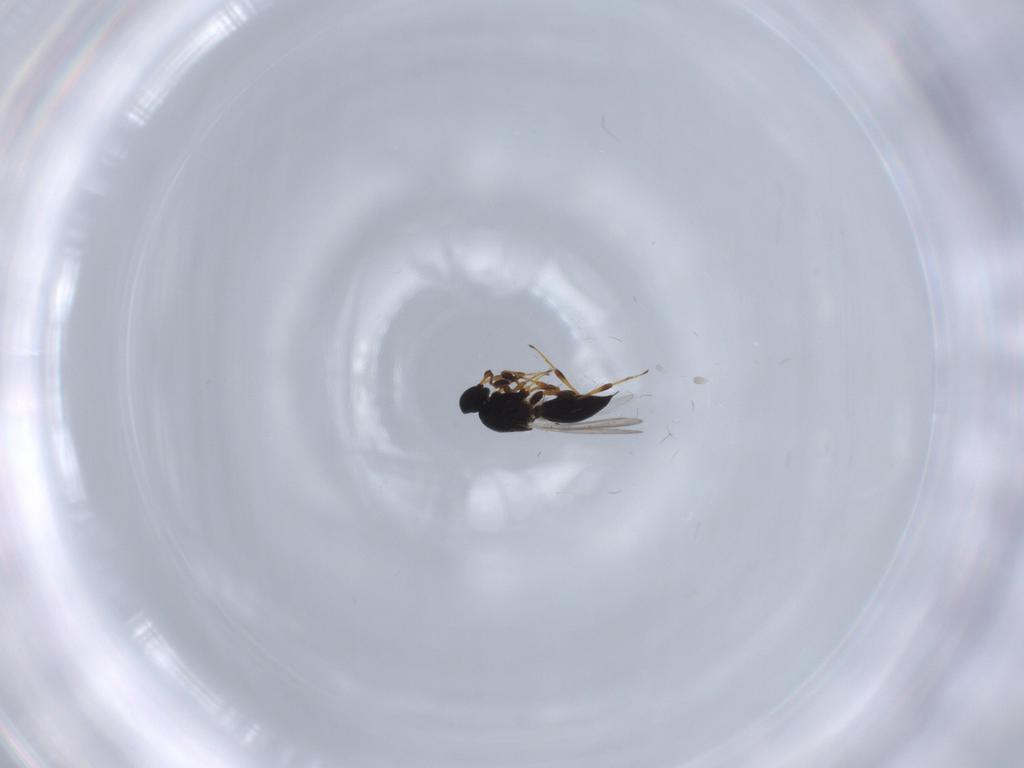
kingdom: Animalia
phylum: Arthropoda
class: Insecta
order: Hymenoptera
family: Platygastridae
